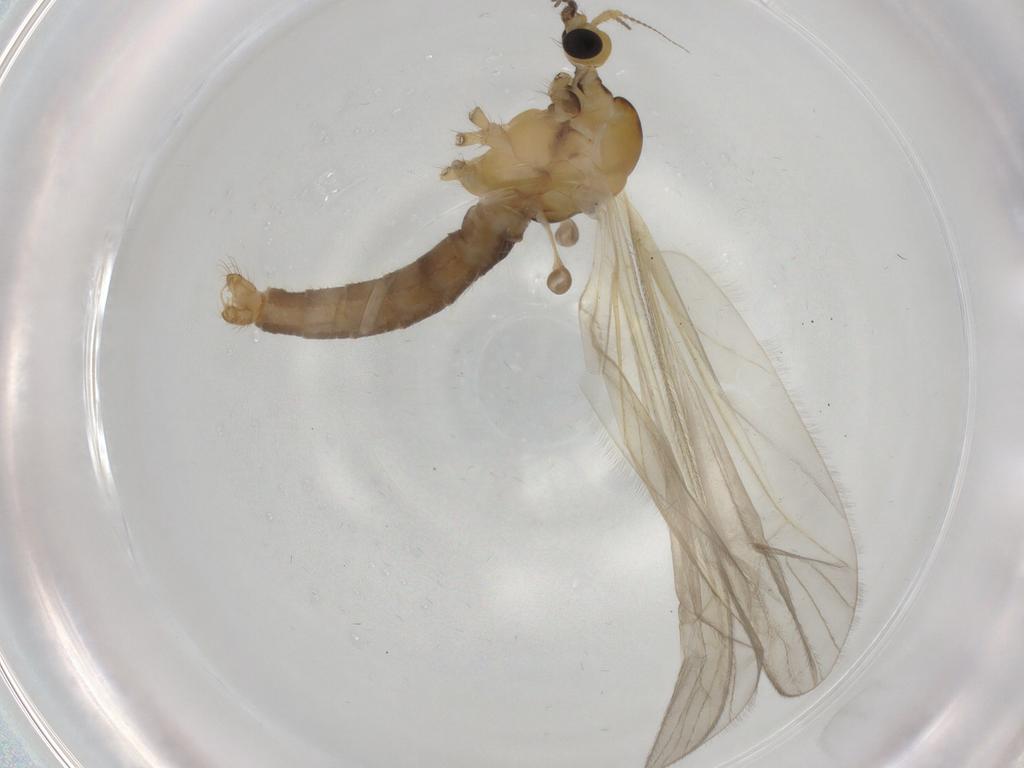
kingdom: Animalia
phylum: Arthropoda
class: Insecta
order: Diptera
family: Limoniidae
